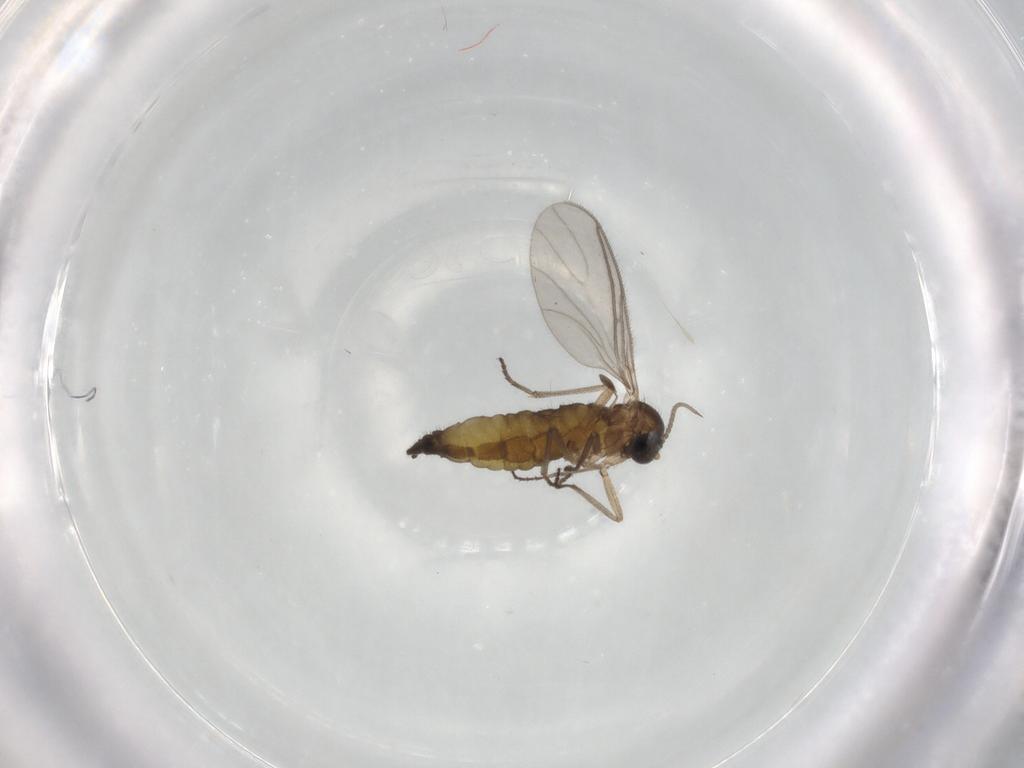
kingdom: Animalia
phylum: Arthropoda
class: Insecta
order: Diptera
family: Sciaridae
